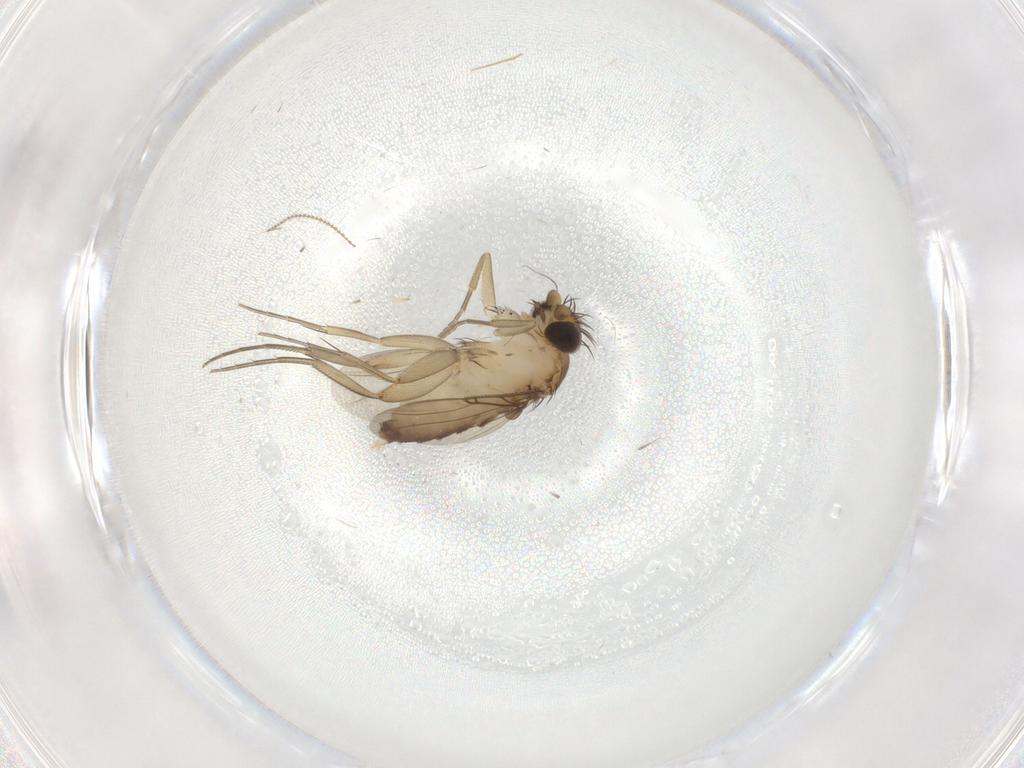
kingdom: Animalia
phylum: Arthropoda
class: Insecta
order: Diptera
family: Phoridae
